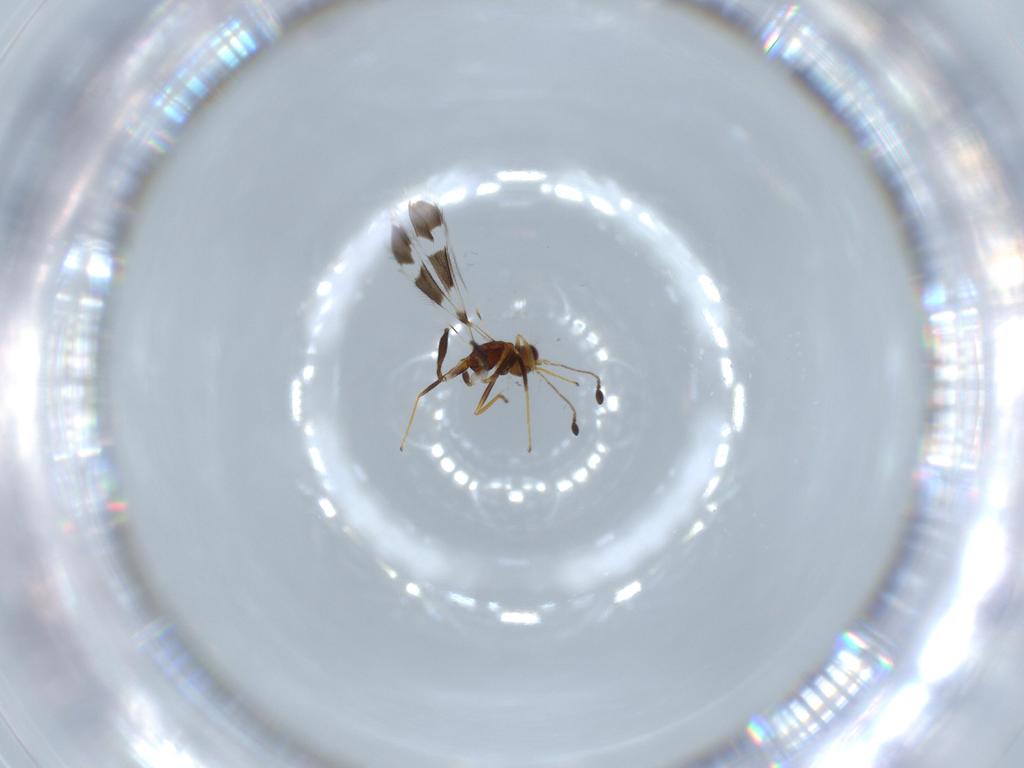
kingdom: Animalia
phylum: Arthropoda
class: Insecta
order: Hymenoptera
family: Mymaridae
